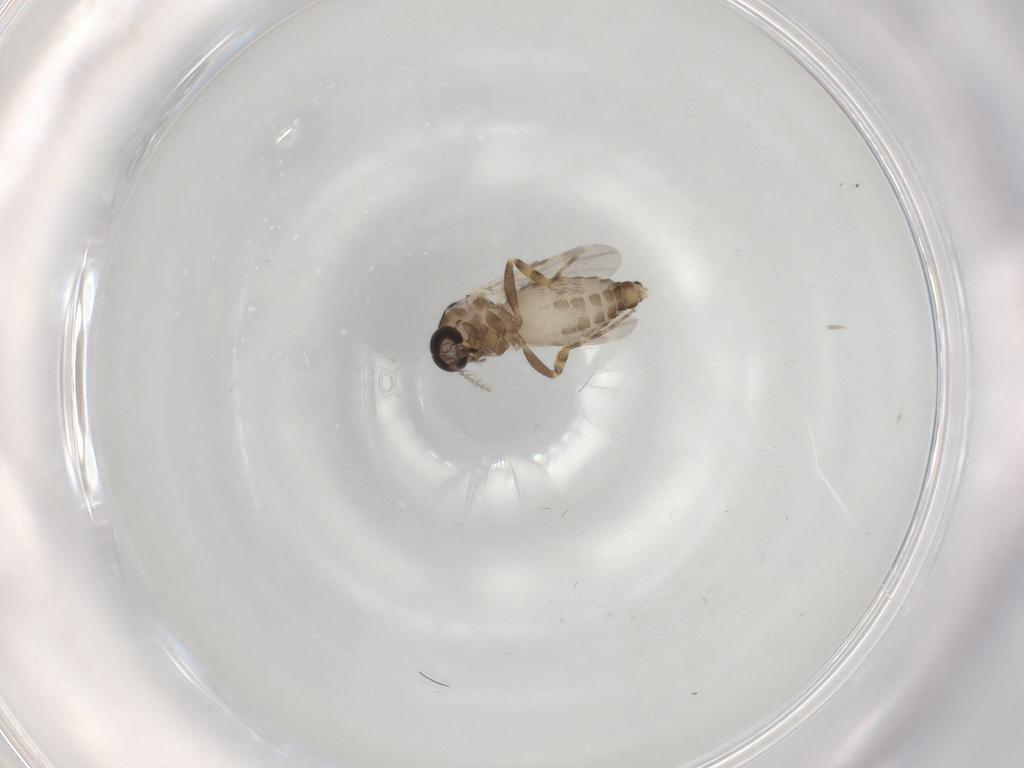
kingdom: Animalia
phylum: Arthropoda
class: Insecta
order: Diptera
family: Ceratopogonidae
